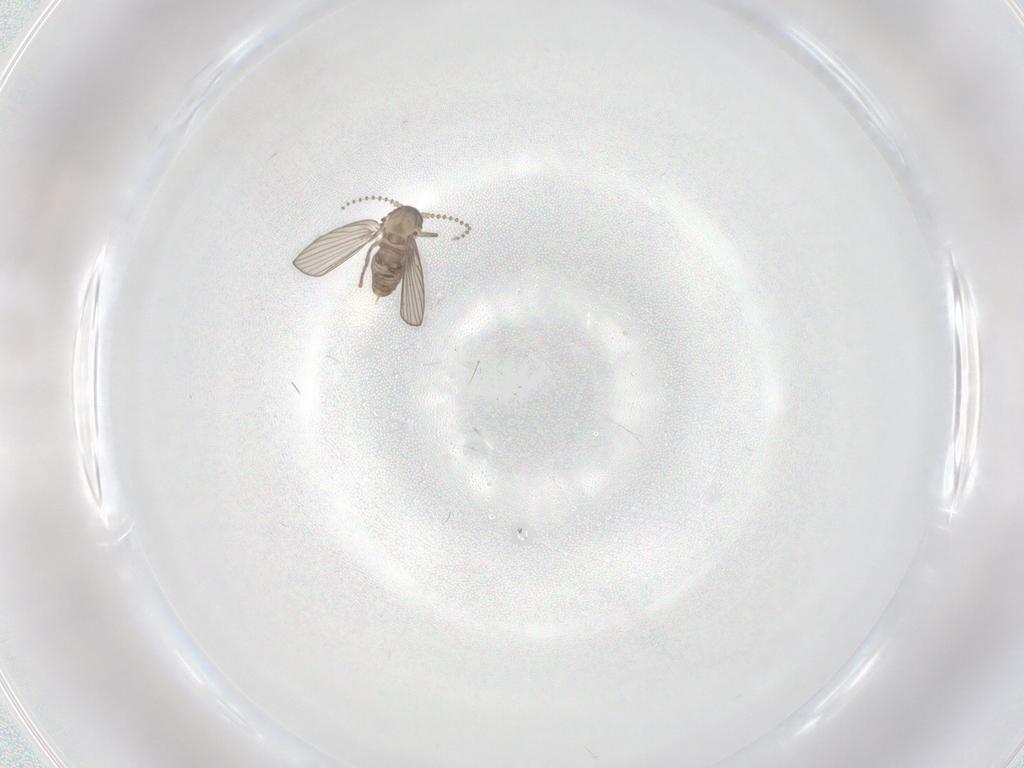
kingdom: Animalia
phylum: Arthropoda
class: Insecta
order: Diptera
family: Psychodidae
